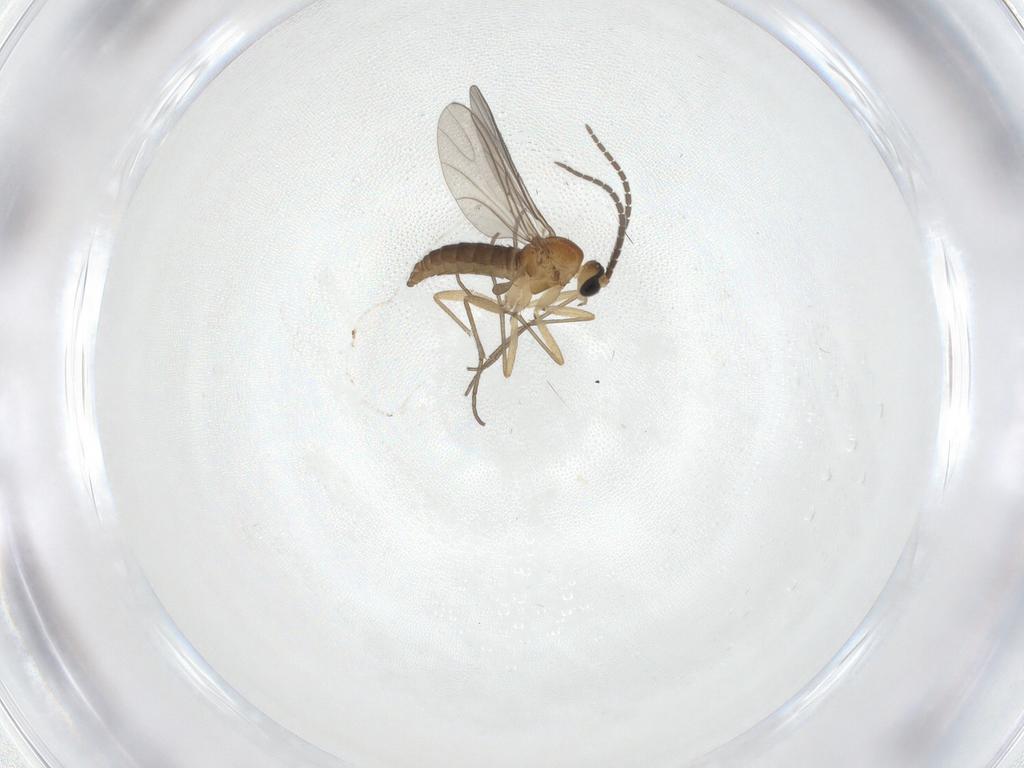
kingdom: Animalia
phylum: Arthropoda
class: Insecta
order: Diptera
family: Sciaridae
